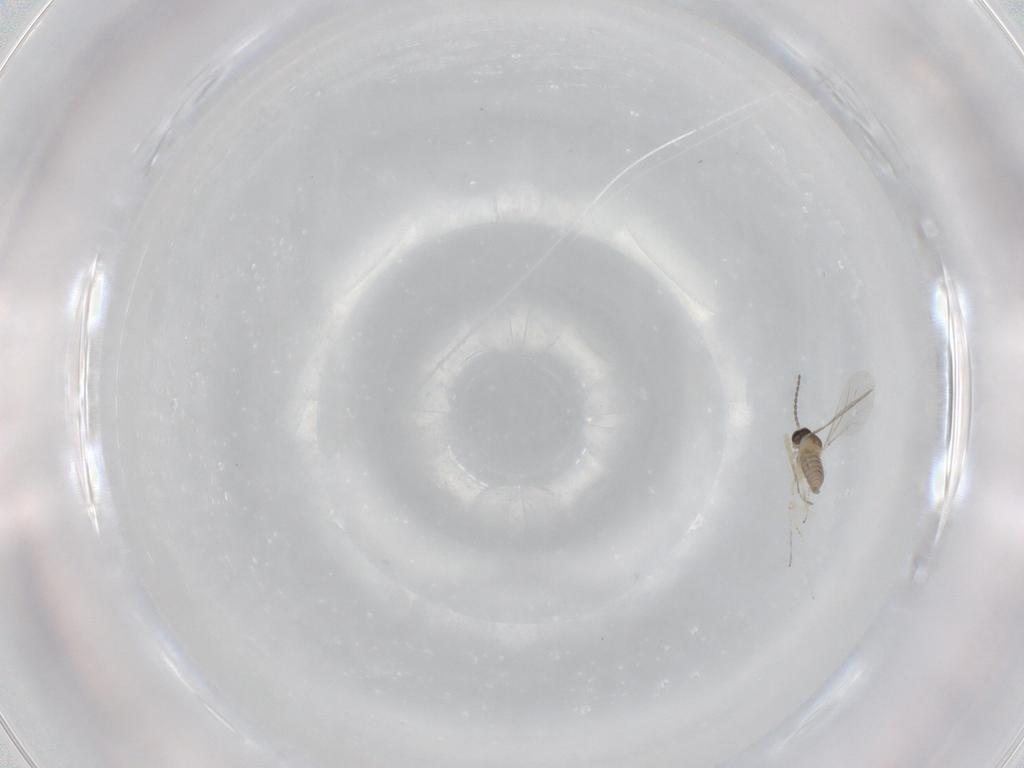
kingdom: Animalia
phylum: Arthropoda
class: Insecta
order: Diptera
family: Cecidomyiidae
